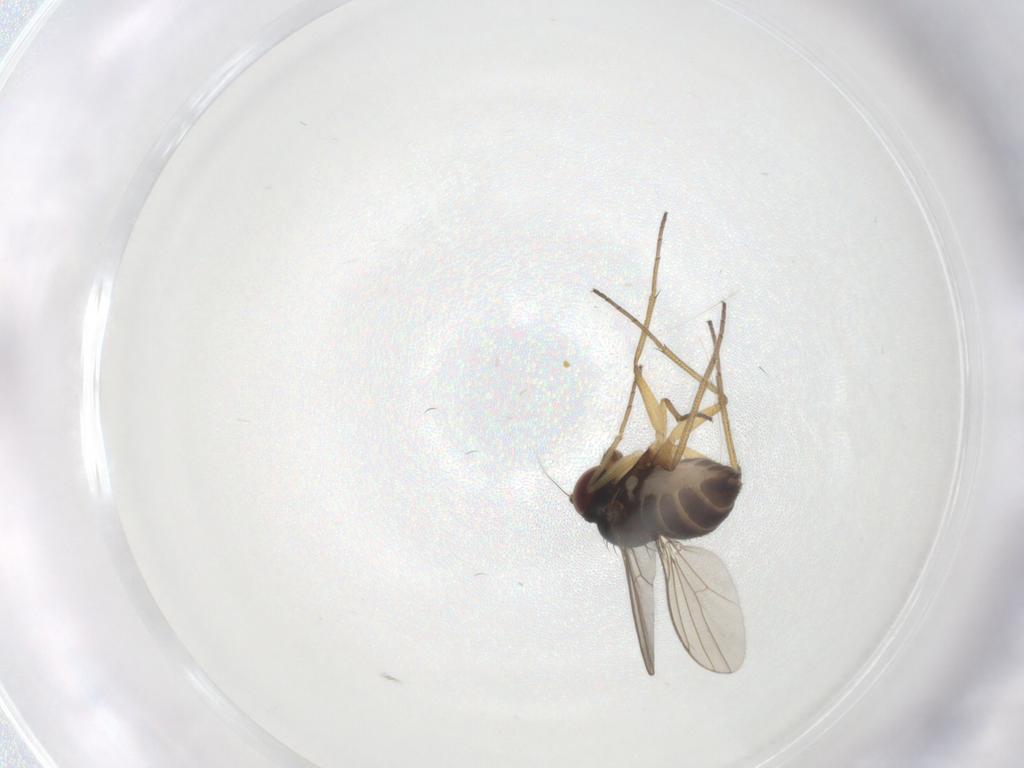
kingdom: Animalia
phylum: Arthropoda
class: Insecta
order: Diptera
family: Dolichopodidae
